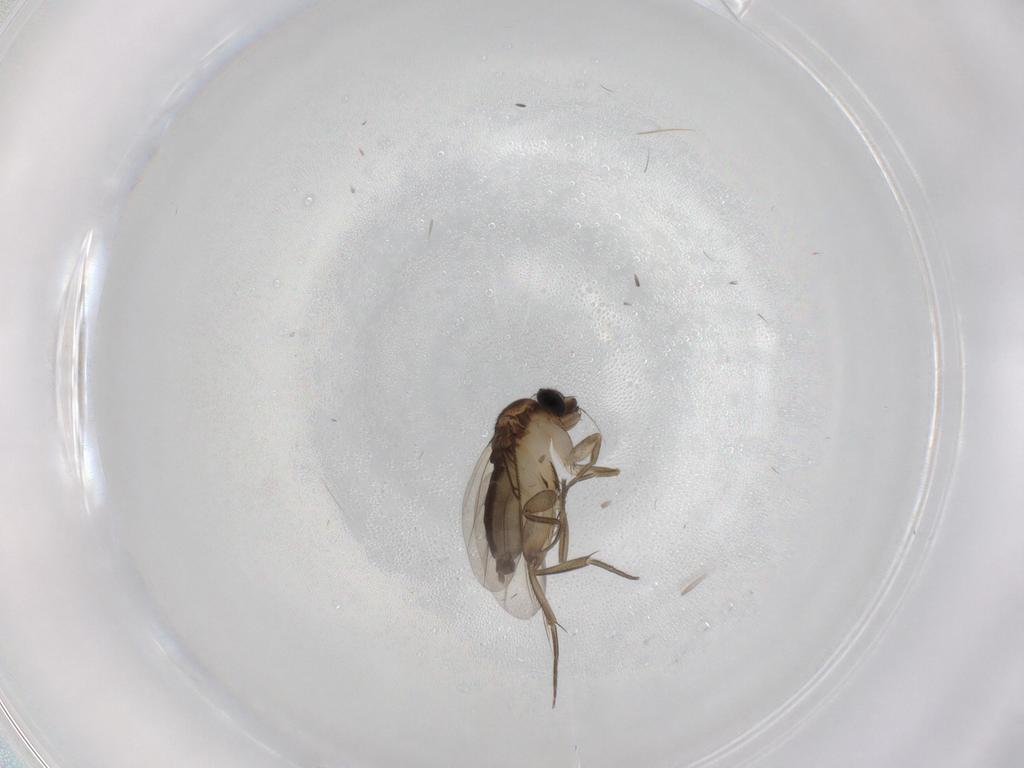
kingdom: Animalia
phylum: Arthropoda
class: Insecta
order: Diptera
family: Phoridae
